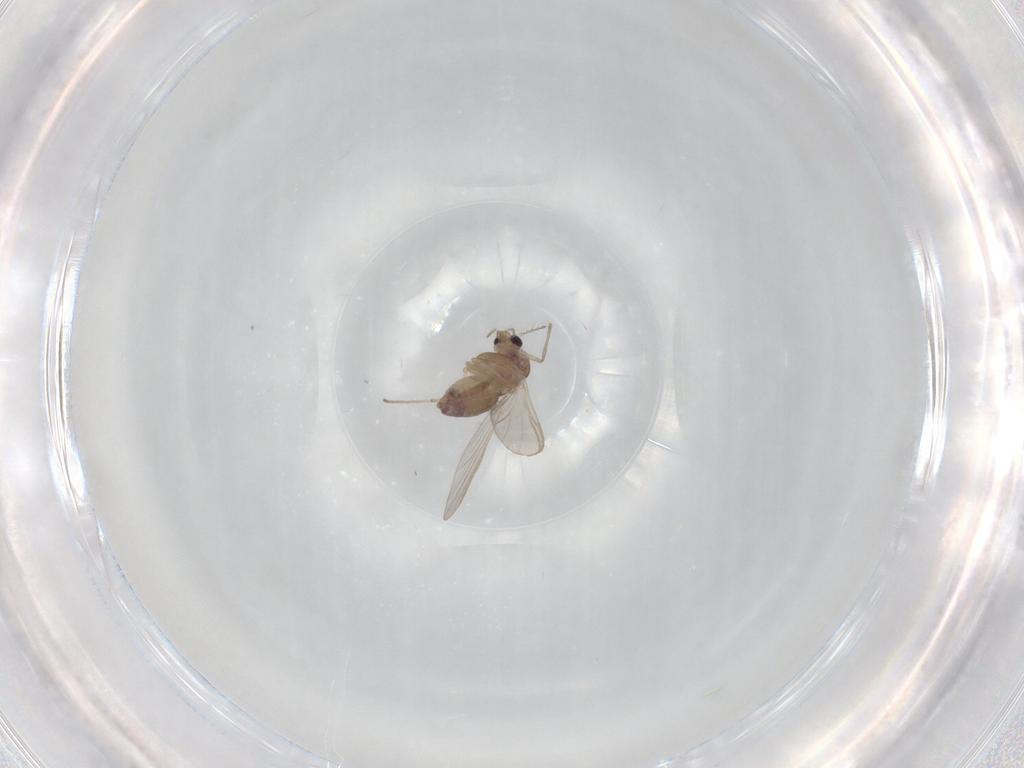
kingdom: Animalia
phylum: Arthropoda
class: Insecta
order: Diptera
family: Chironomidae
